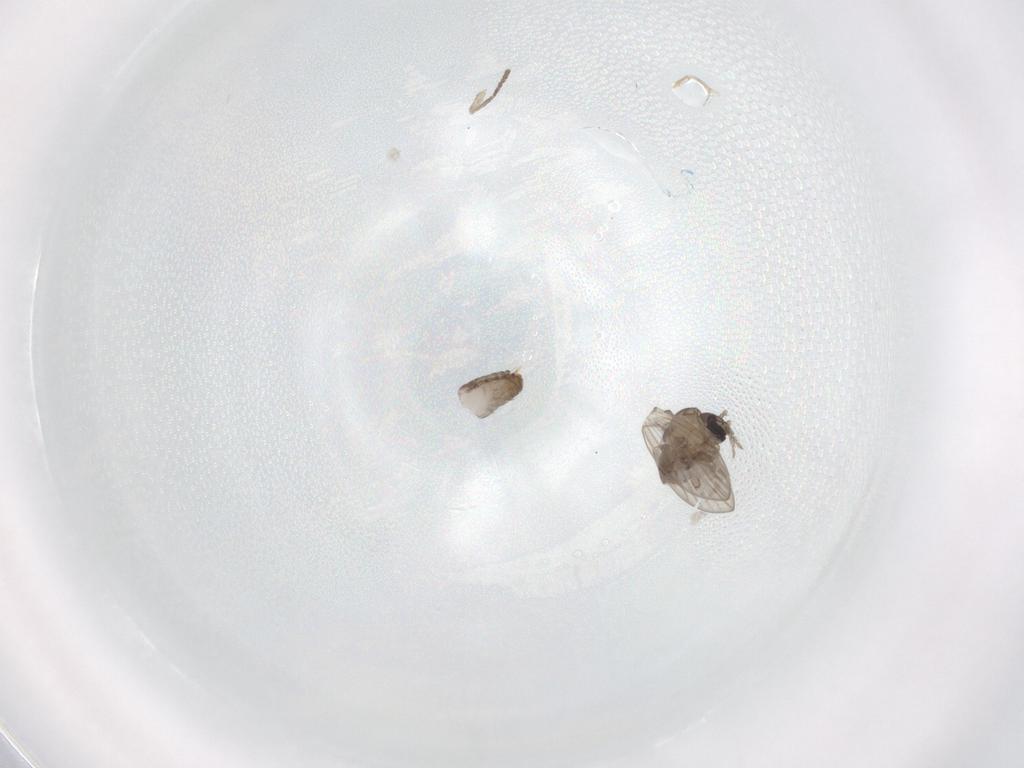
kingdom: Animalia
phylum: Arthropoda
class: Insecta
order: Diptera
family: Psychodidae
